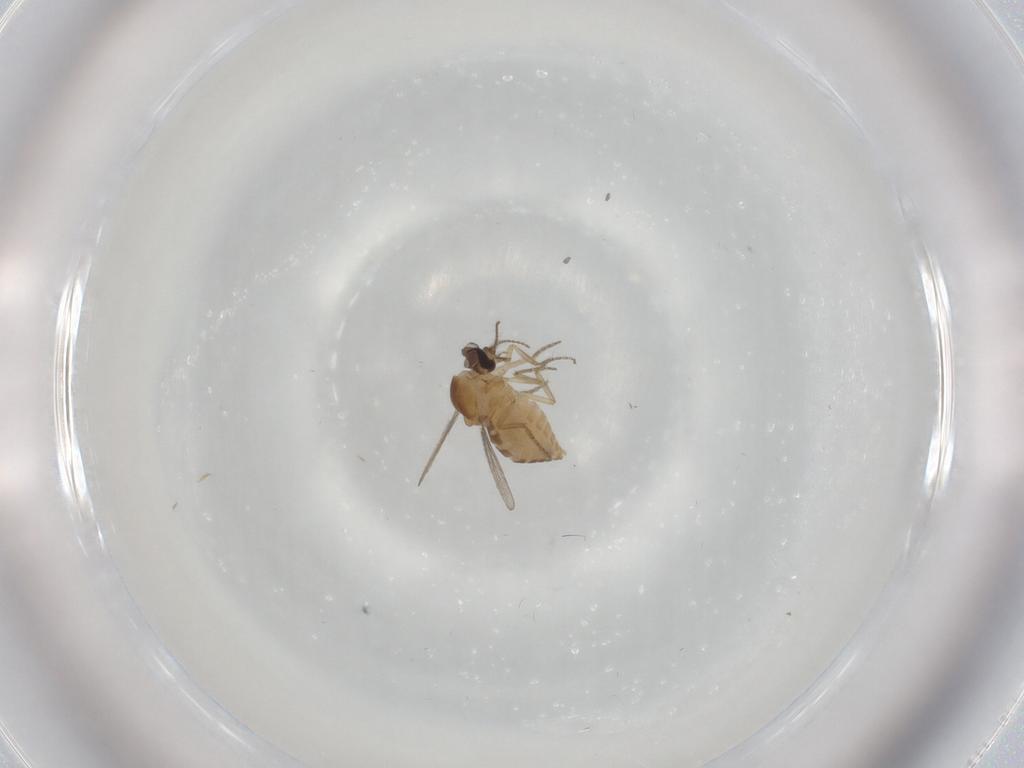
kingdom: Animalia
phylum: Arthropoda
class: Insecta
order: Diptera
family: Ceratopogonidae
